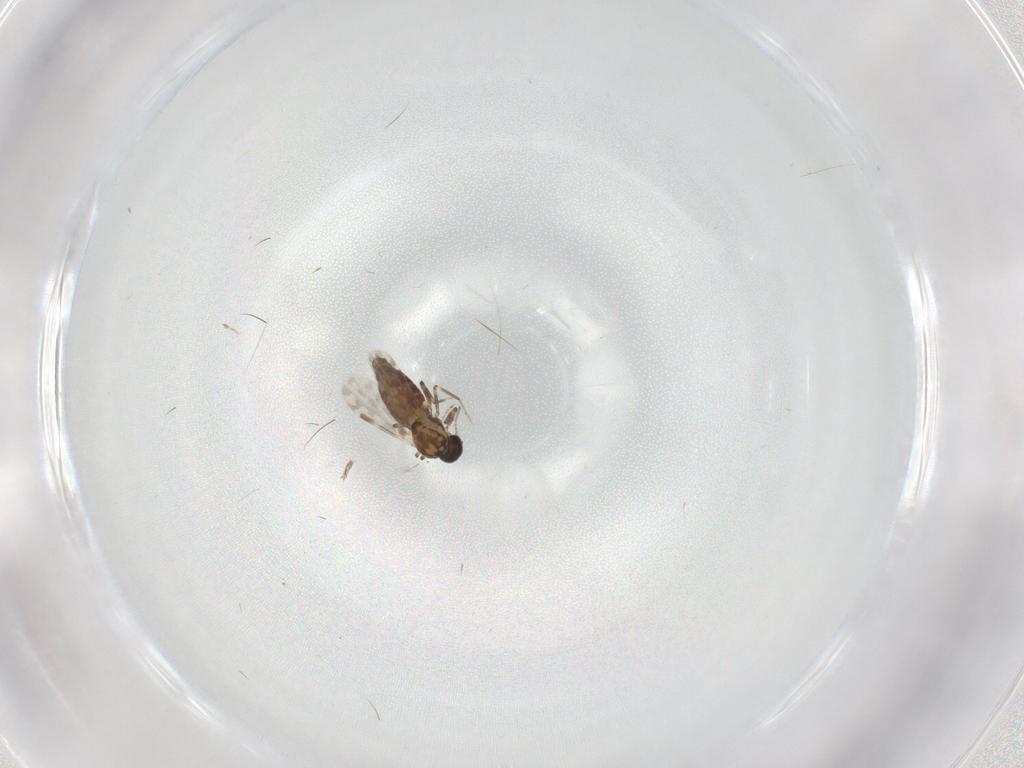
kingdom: Animalia
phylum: Arthropoda
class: Insecta
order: Diptera
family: Ceratopogonidae
